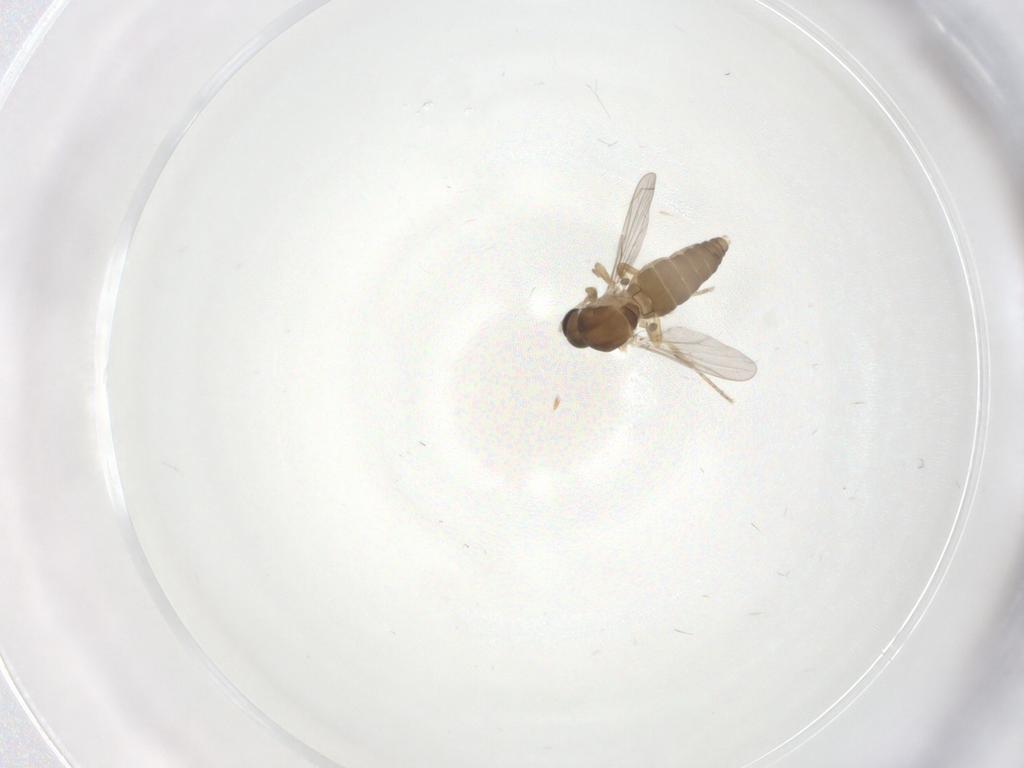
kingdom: Animalia
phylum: Arthropoda
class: Insecta
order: Diptera
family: Ceratopogonidae
